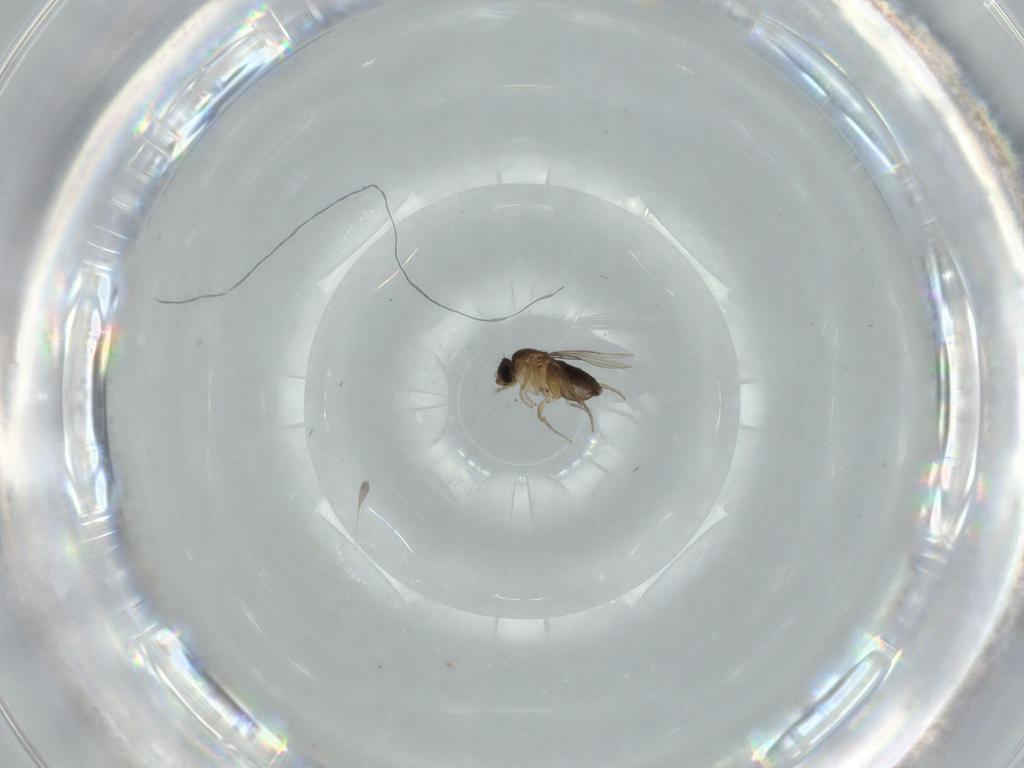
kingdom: Animalia
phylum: Arthropoda
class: Insecta
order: Diptera
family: Phoridae
